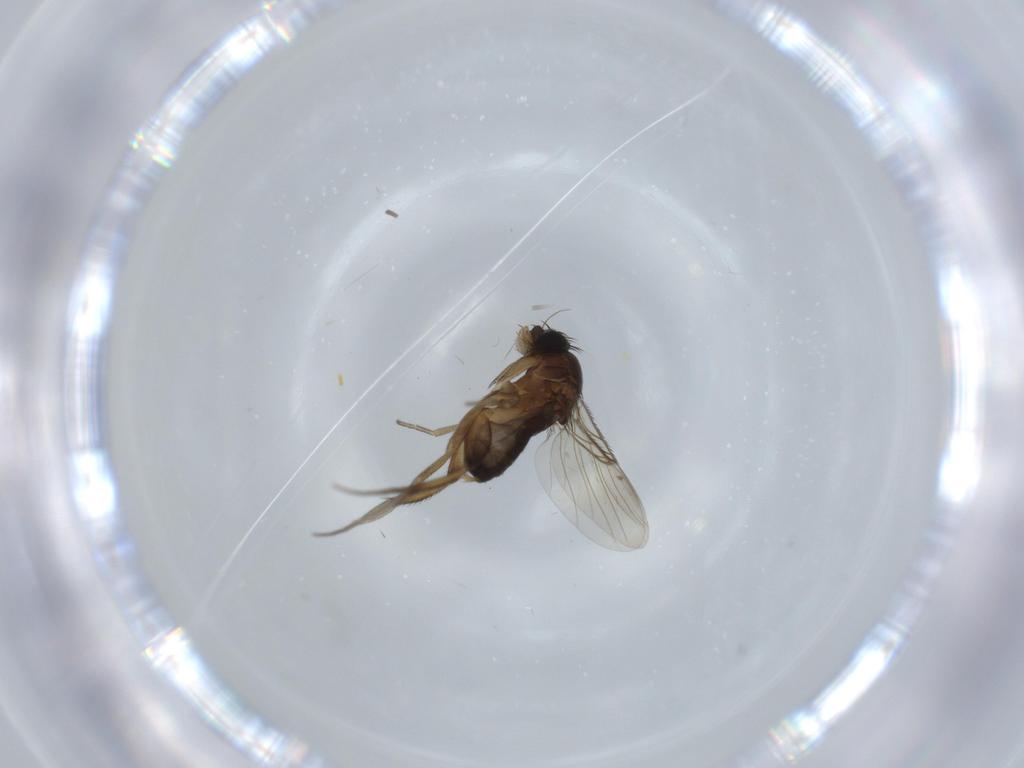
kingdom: Animalia
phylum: Arthropoda
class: Insecta
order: Diptera
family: Phoridae
